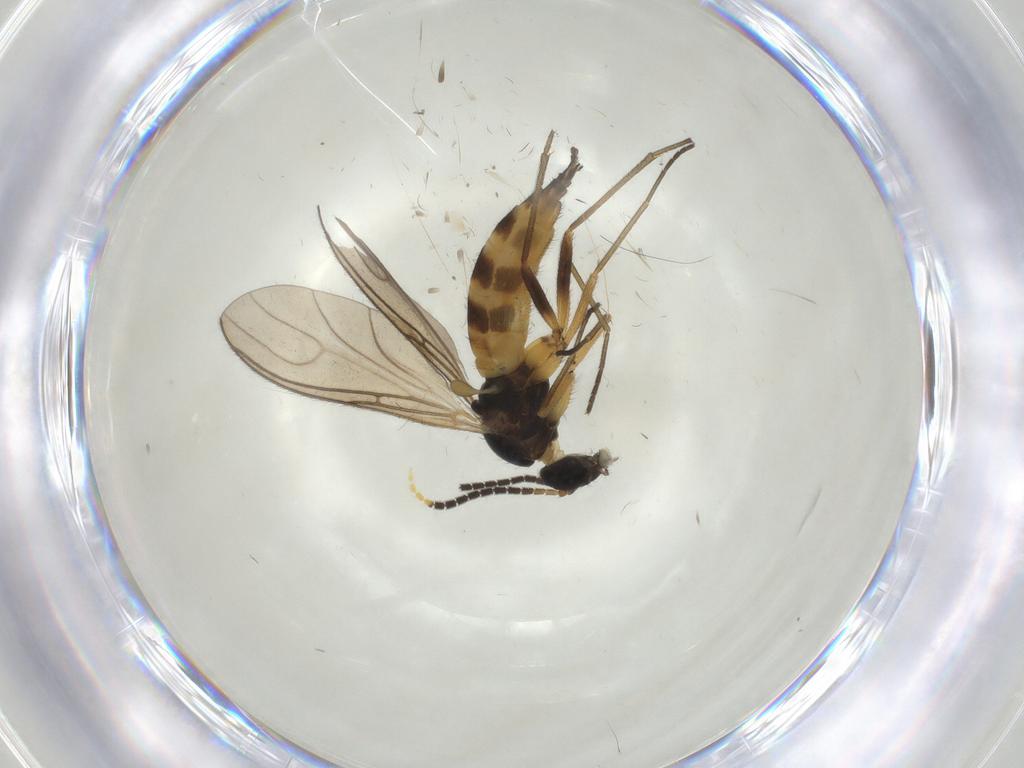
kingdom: Animalia
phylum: Arthropoda
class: Insecta
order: Diptera
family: Sciaridae
